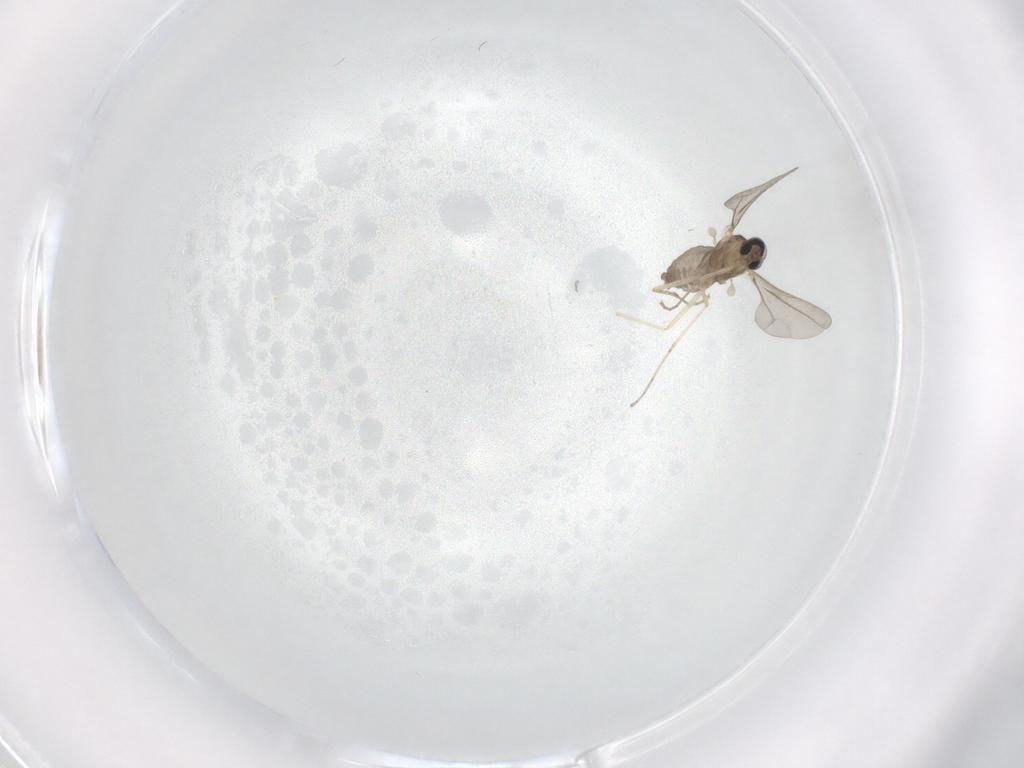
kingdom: Animalia
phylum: Arthropoda
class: Insecta
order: Diptera
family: Cecidomyiidae
